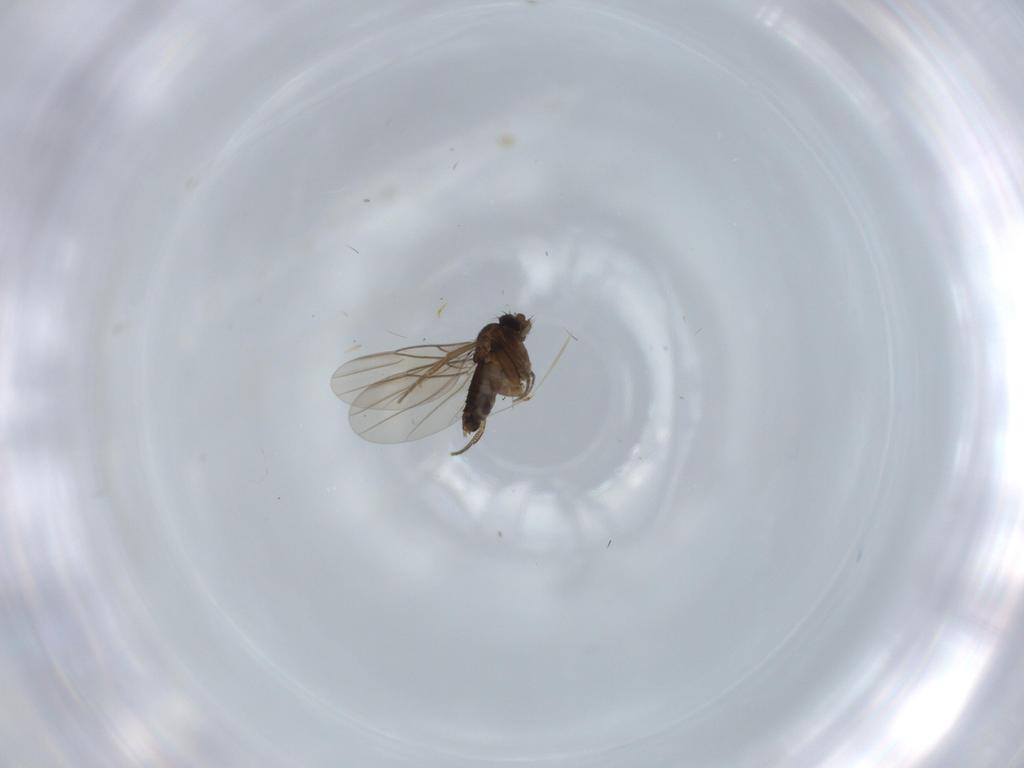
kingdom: Animalia
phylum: Arthropoda
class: Insecta
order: Diptera
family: Phoridae
